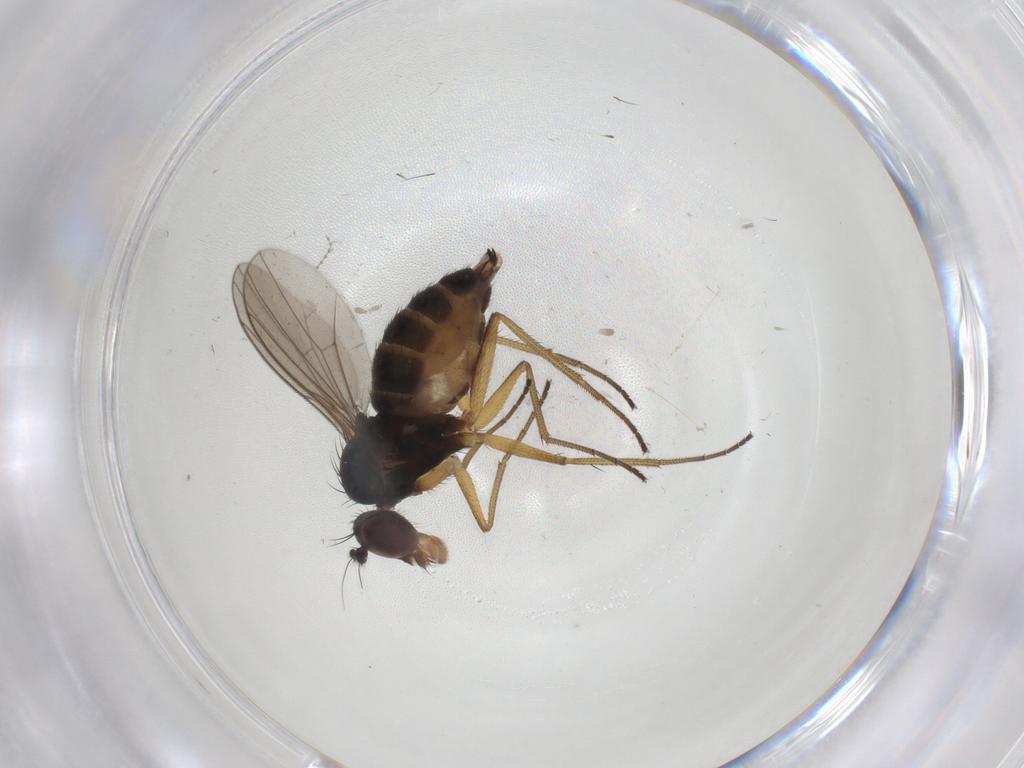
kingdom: Animalia
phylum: Arthropoda
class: Insecta
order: Diptera
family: Dolichopodidae
